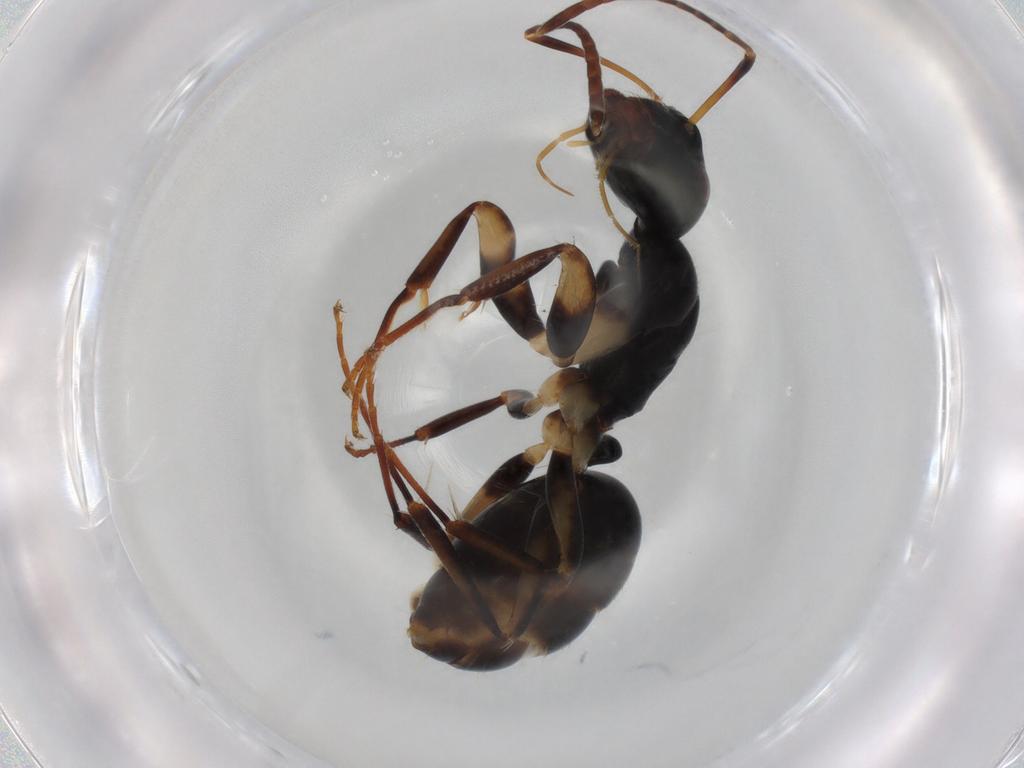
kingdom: Animalia
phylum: Arthropoda
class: Insecta
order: Hymenoptera
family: Formicidae
